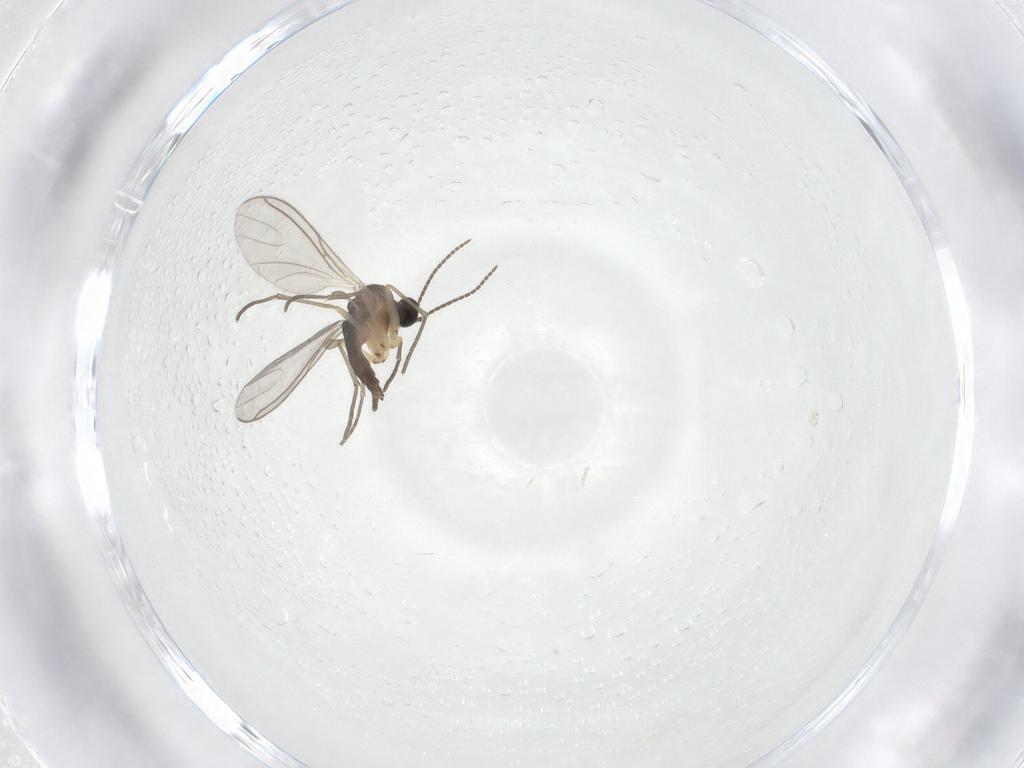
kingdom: Animalia
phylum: Arthropoda
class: Insecta
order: Diptera
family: Sciaridae
